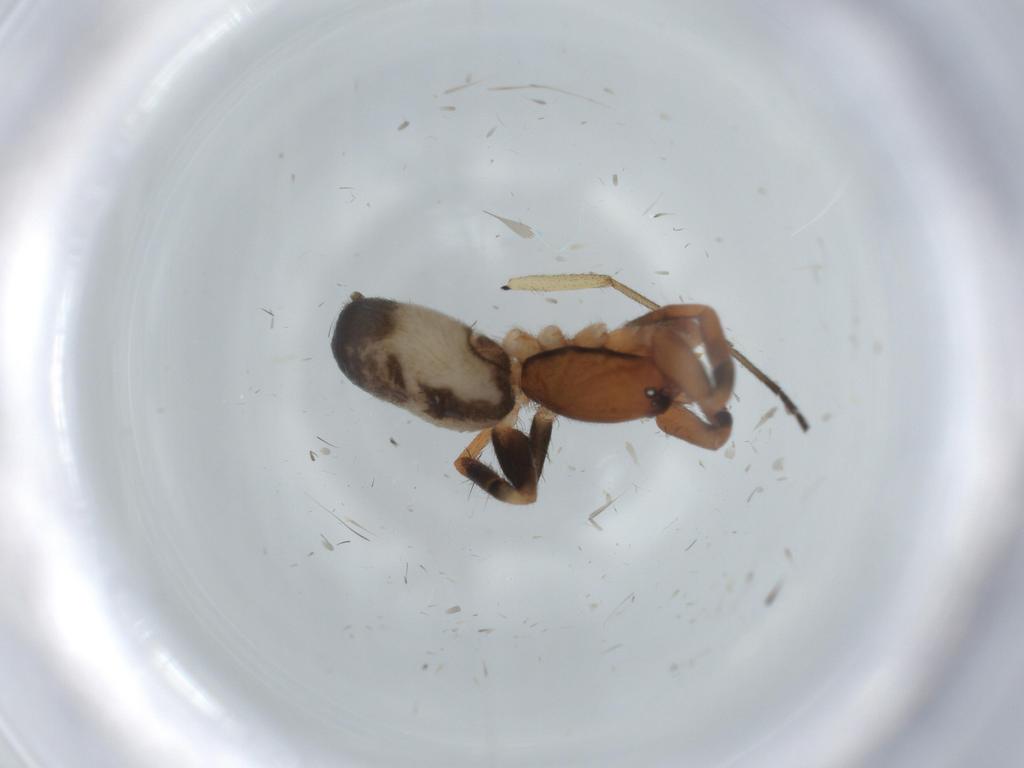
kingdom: Animalia
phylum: Arthropoda
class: Arachnida
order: Araneae
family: Gnaphosidae
